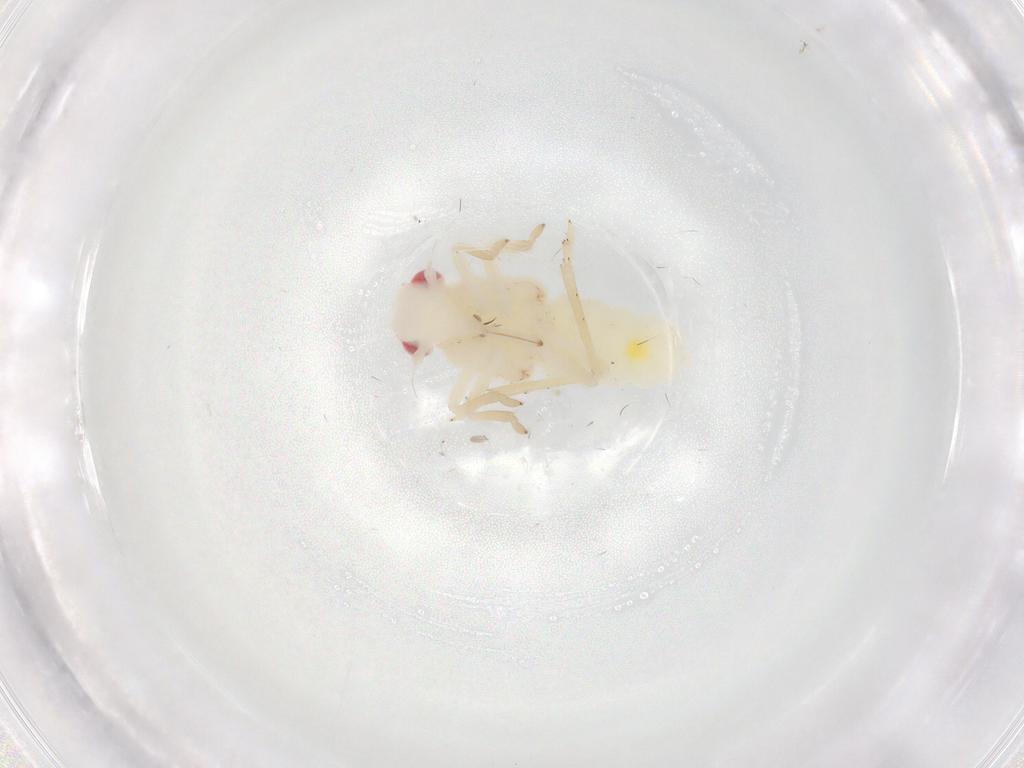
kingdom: Animalia
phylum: Arthropoda
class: Insecta
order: Hemiptera
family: Tropiduchidae
